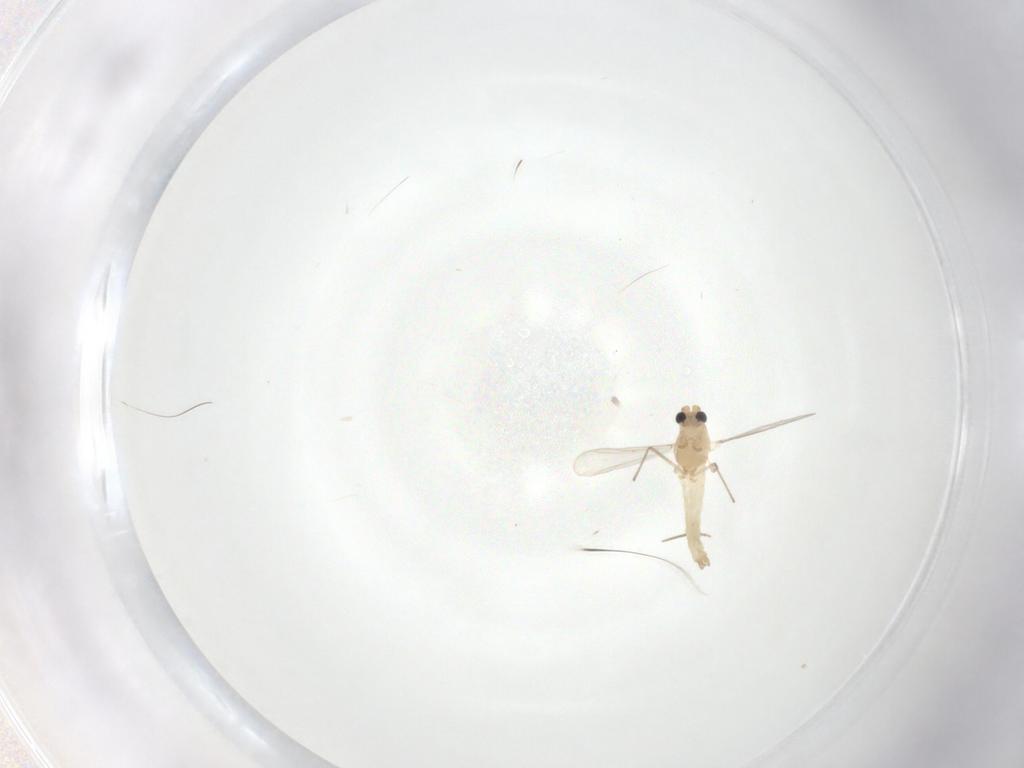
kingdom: Animalia
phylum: Arthropoda
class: Insecta
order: Diptera
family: Chironomidae
